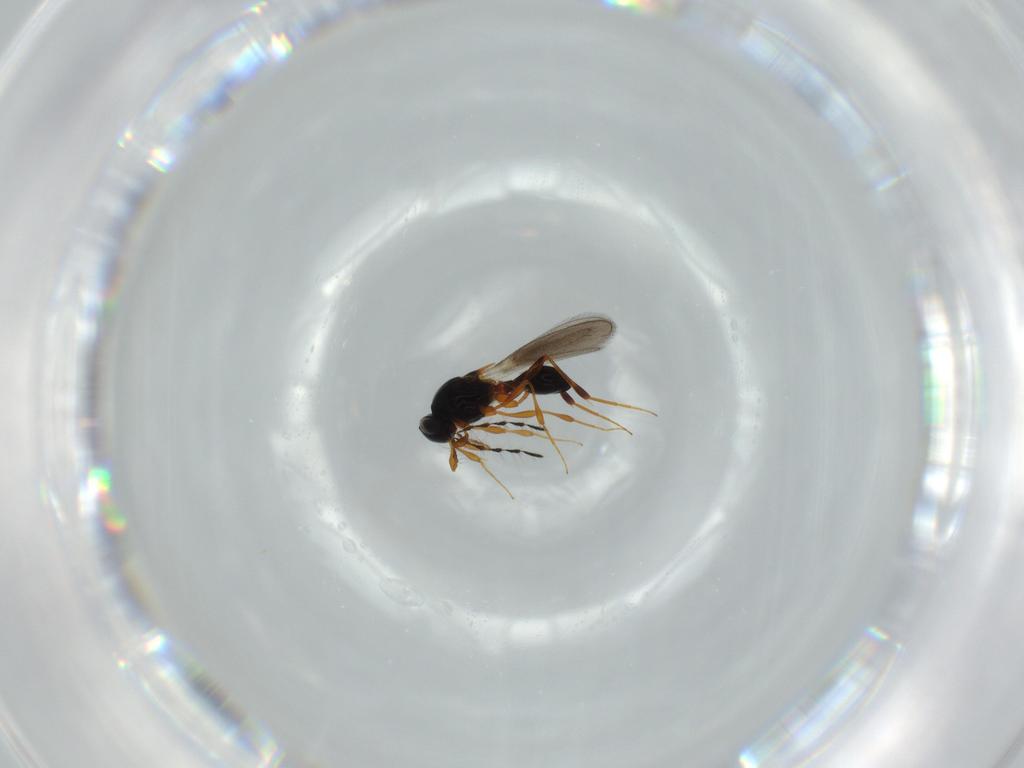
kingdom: Animalia
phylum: Arthropoda
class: Insecta
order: Hymenoptera
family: Platygastridae
